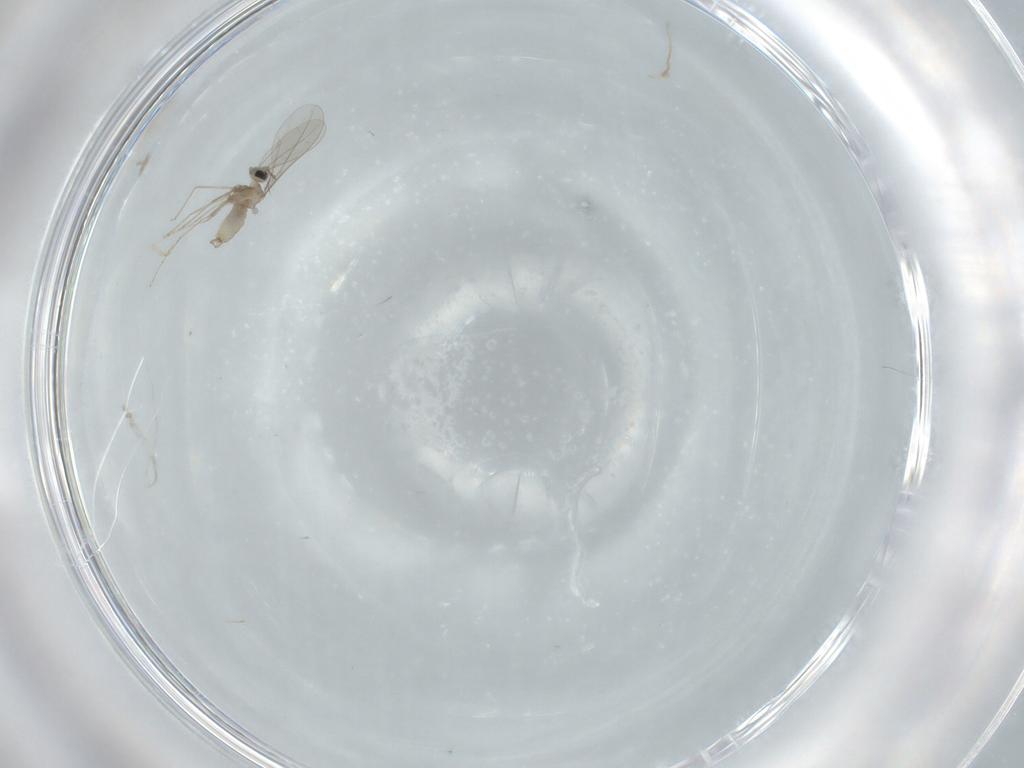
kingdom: Animalia
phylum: Arthropoda
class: Insecta
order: Diptera
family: Cecidomyiidae
